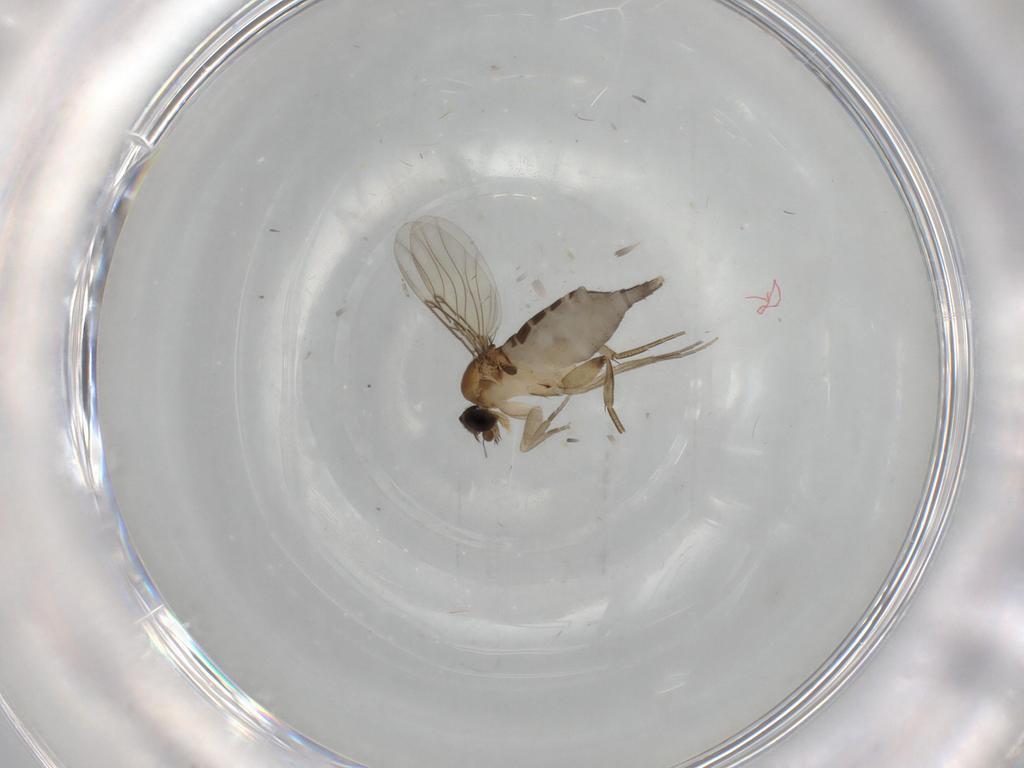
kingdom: Animalia
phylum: Arthropoda
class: Insecta
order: Diptera
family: Phoridae
